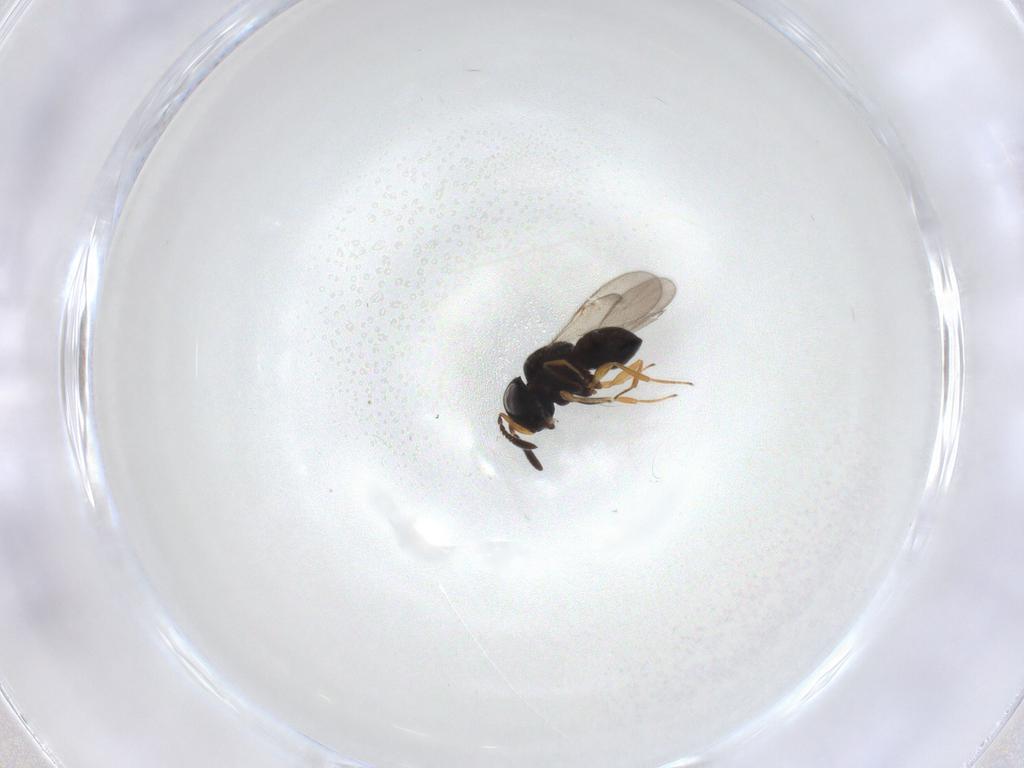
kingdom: Animalia
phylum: Arthropoda
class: Insecta
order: Hymenoptera
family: Scelionidae
